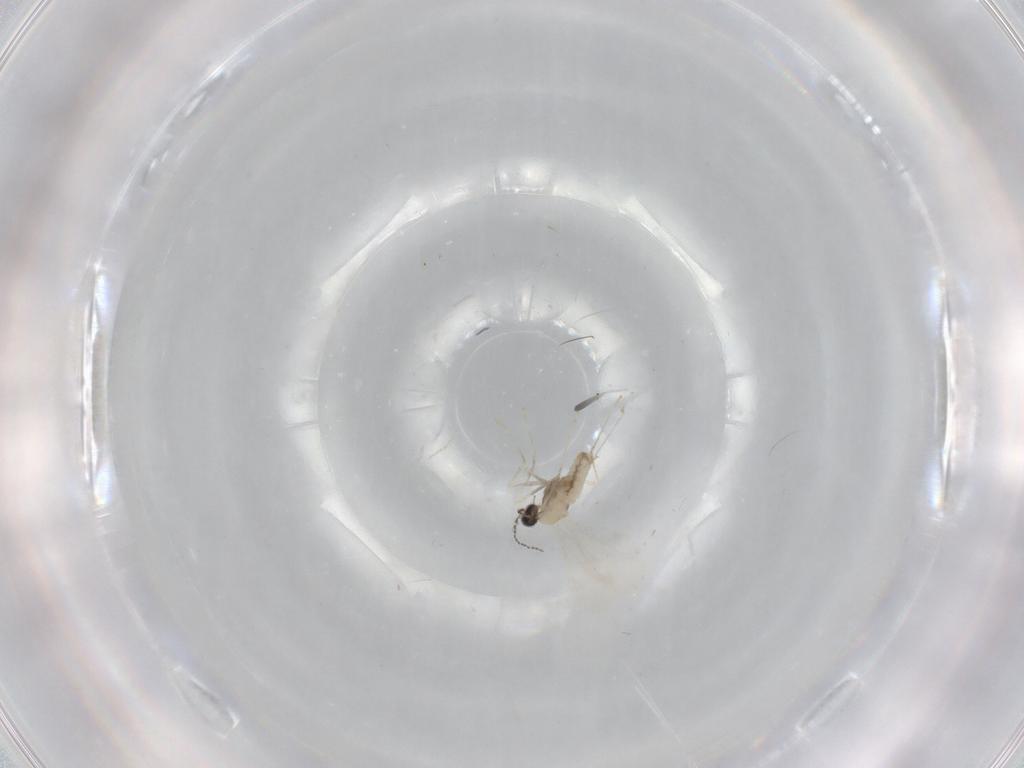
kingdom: Animalia
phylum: Arthropoda
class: Insecta
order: Diptera
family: Cecidomyiidae
